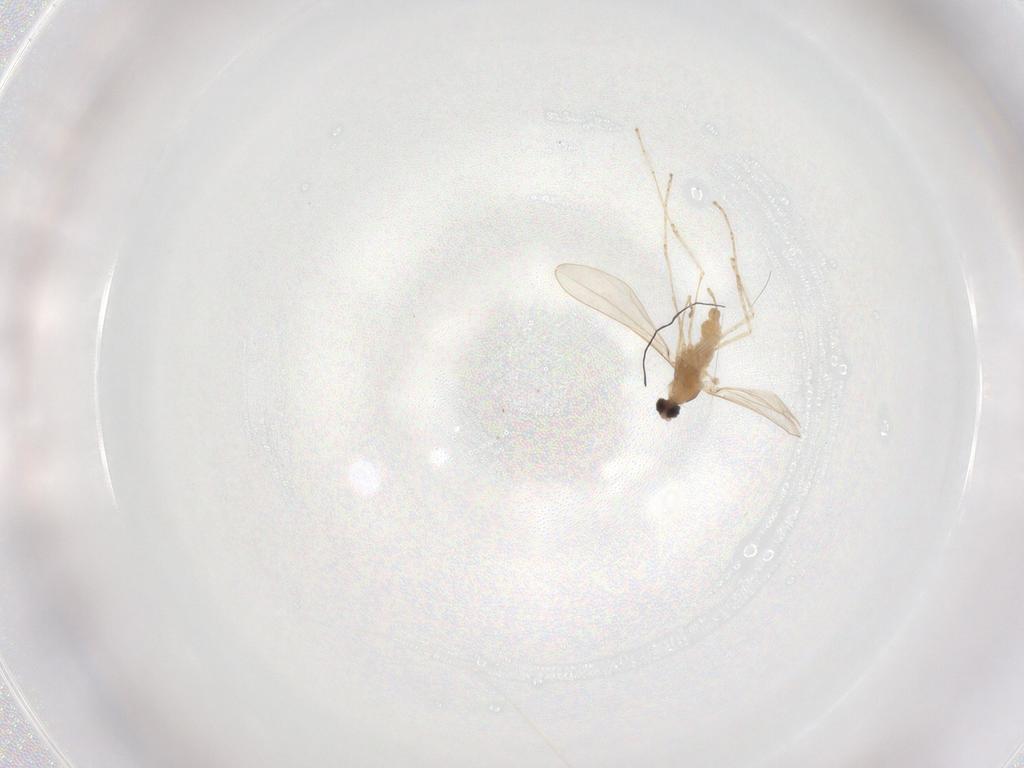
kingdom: Animalia
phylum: Arthropoda
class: Insecta
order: Diptera
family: Cecidomyiidae
